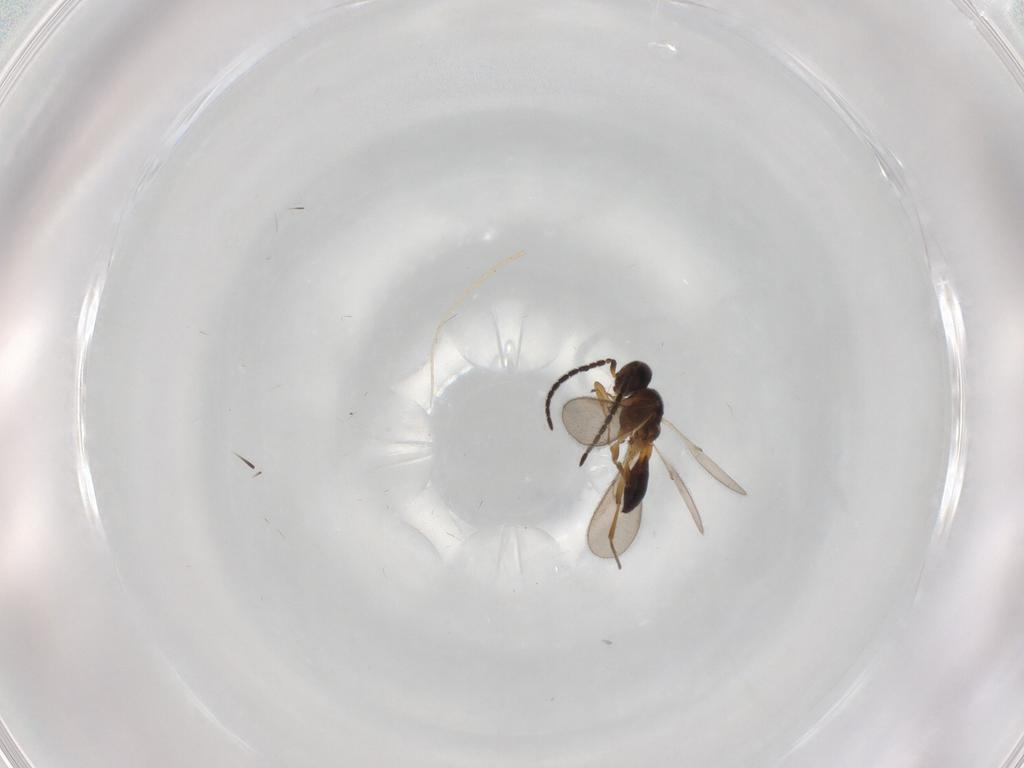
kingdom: Animalia
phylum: Arthropoda
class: Insecta
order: Hymenoptera
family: Scelionidae
